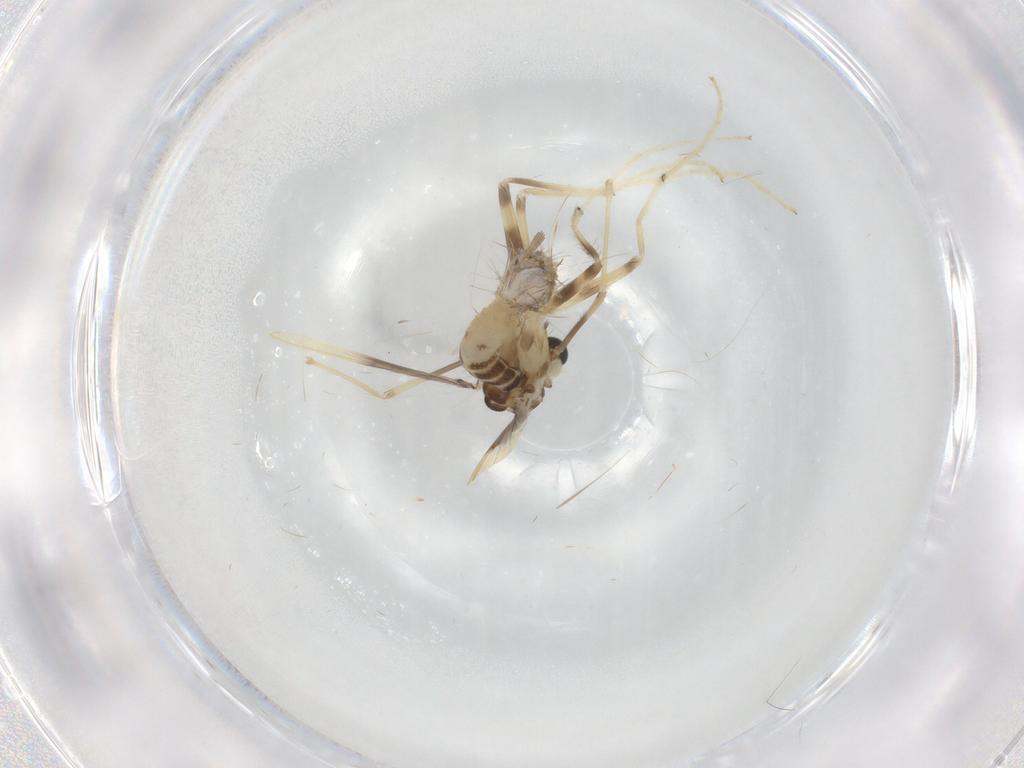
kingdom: Animalia
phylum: Arthropoda
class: Insecta
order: Diptera
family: Chironomidae
